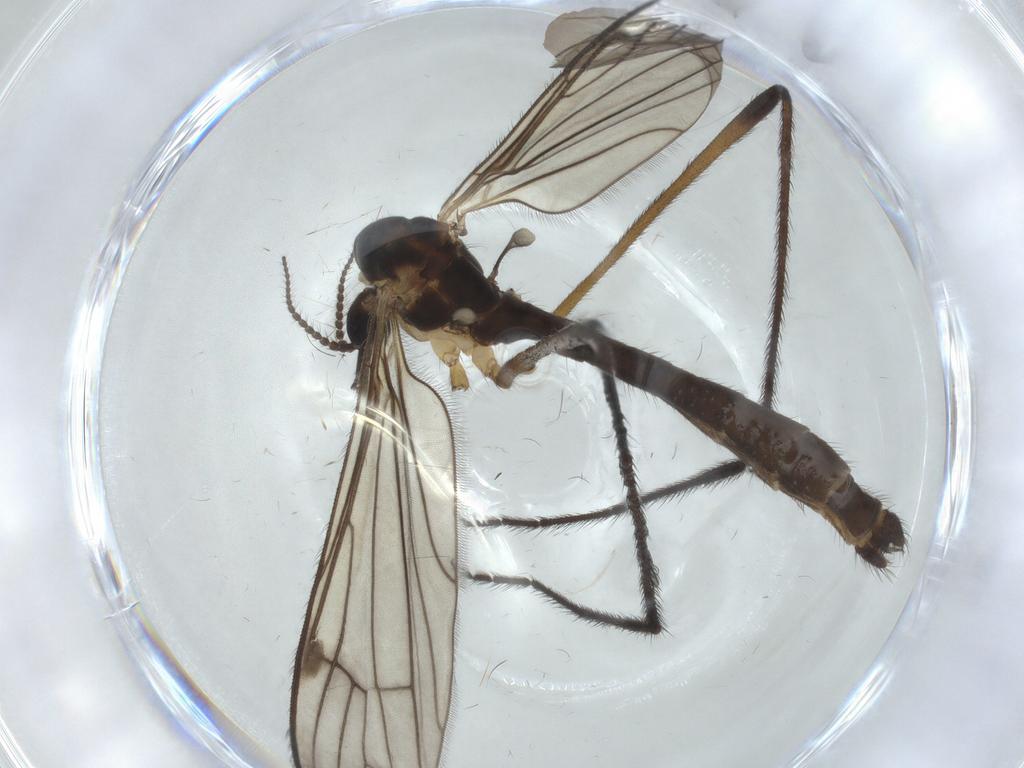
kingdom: Animalia
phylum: Arthropoda
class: Insecta
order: Diptera
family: Limoniidae
